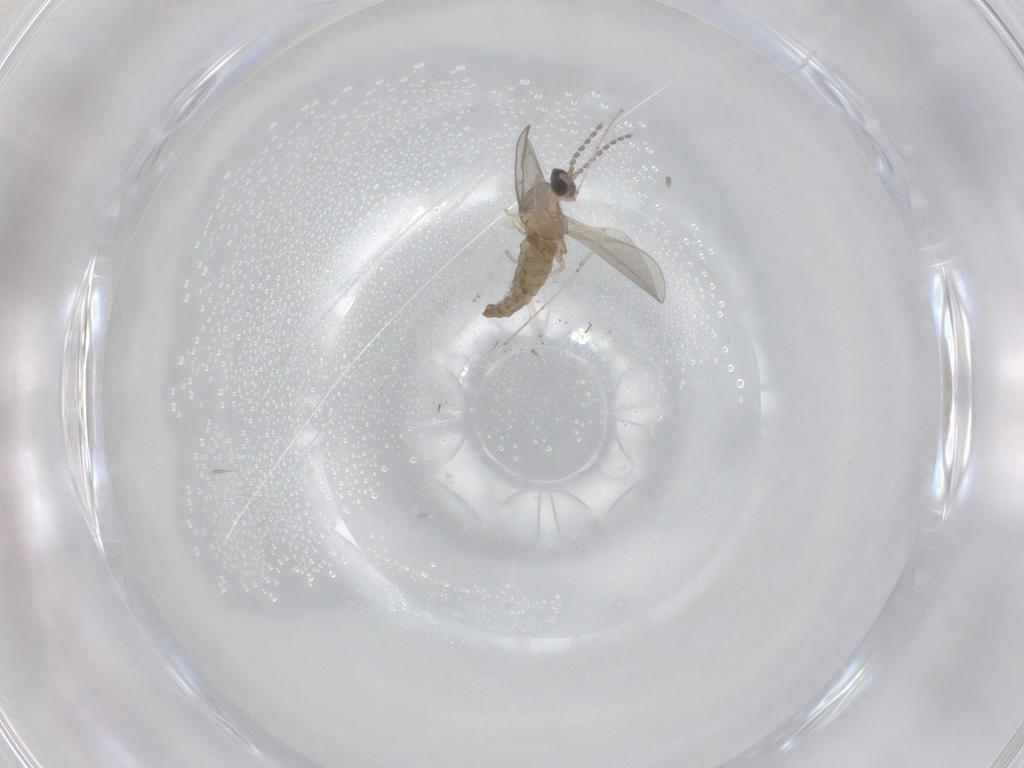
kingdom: Animalia
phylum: Arthropoda
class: Insecta
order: Diptera
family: Cecidomyiidae
